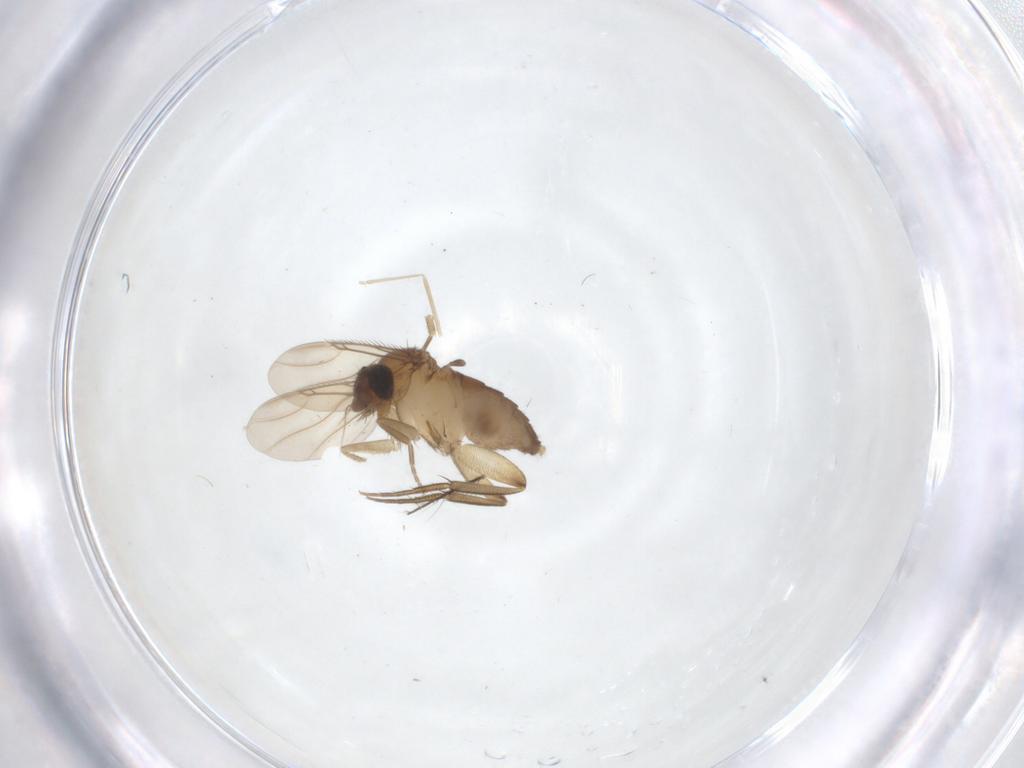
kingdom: Animalia
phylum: Arthropoda
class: Insecta
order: Diptera
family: Phoridae
